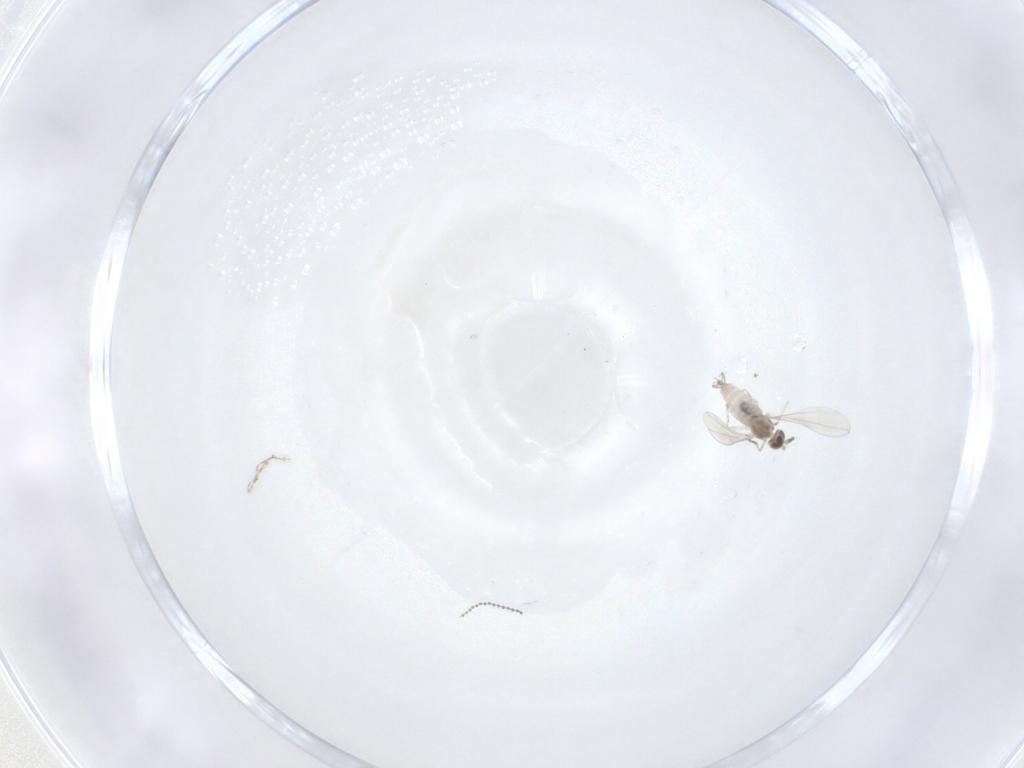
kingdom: Animalia
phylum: Arthropoda
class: Insecta
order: Diptera
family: Cecidomyiidae
